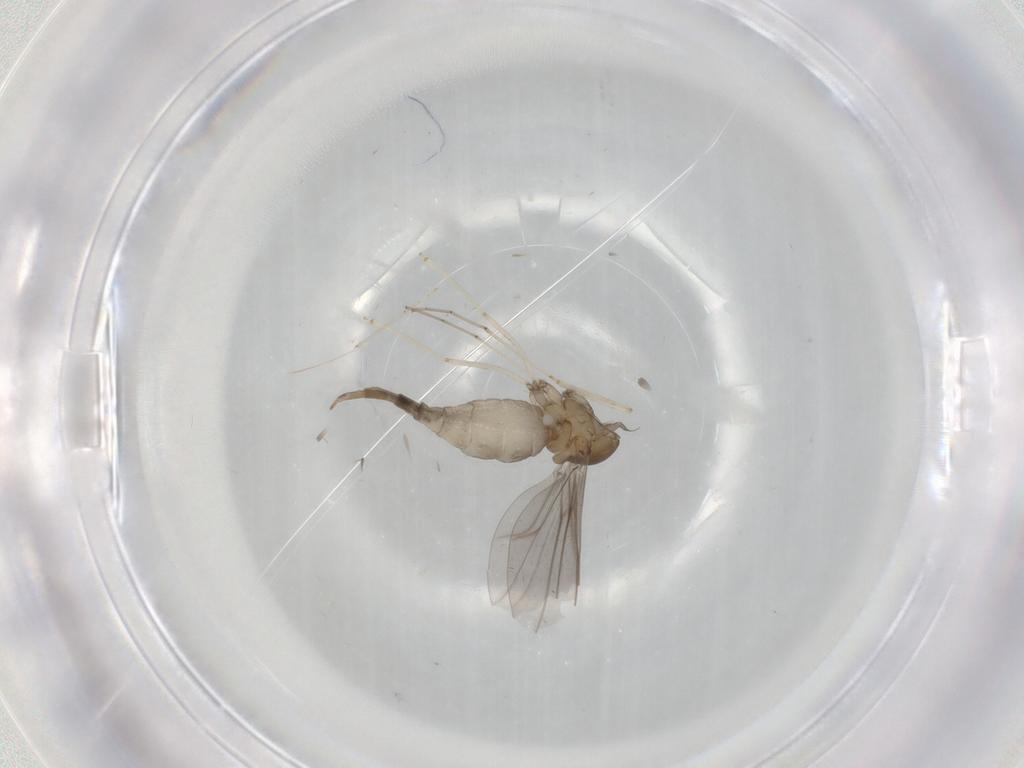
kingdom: Animalia
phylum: Arthropoda
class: Insecta
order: Diptera
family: Cecidomyiidae
